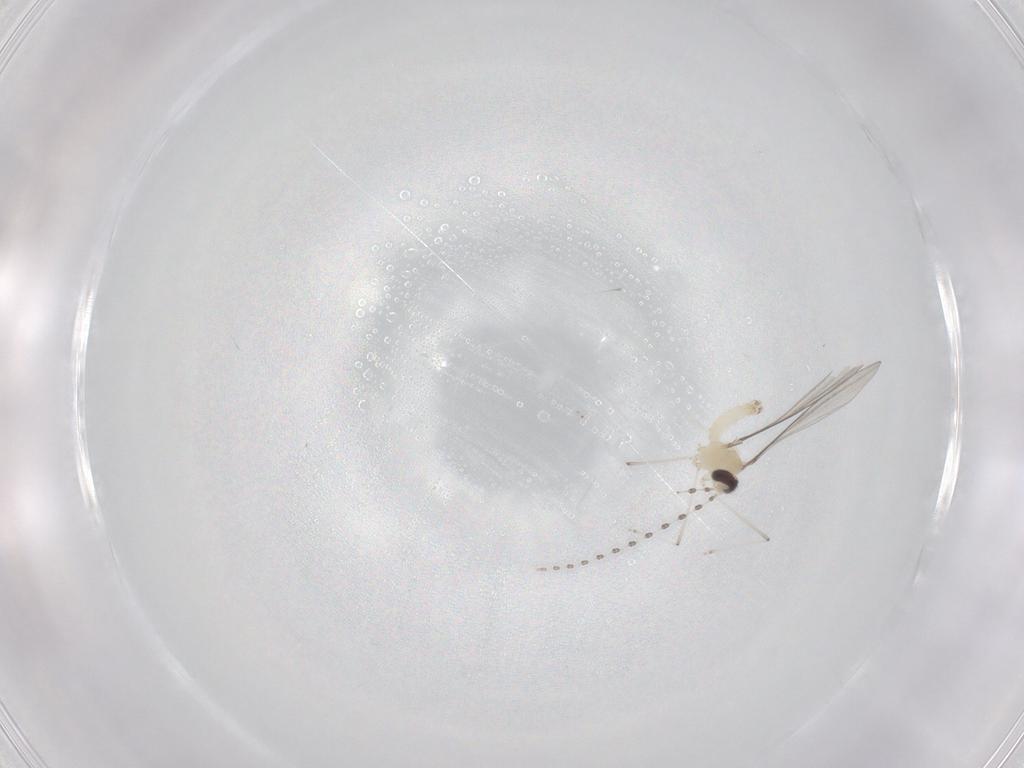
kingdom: Animalia
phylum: Arthropoda
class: Insecta
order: Diptera
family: Cecidomyiidae
